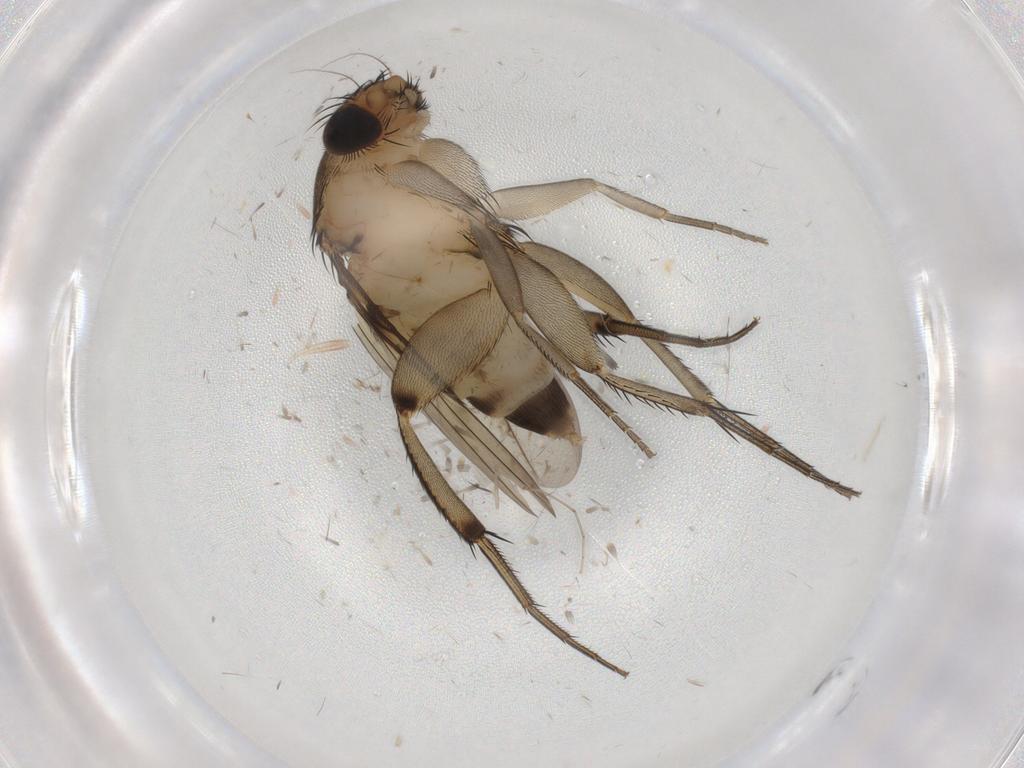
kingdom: Animalia
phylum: Arthropoda
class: Insecta
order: Diptera
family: Phoridae
